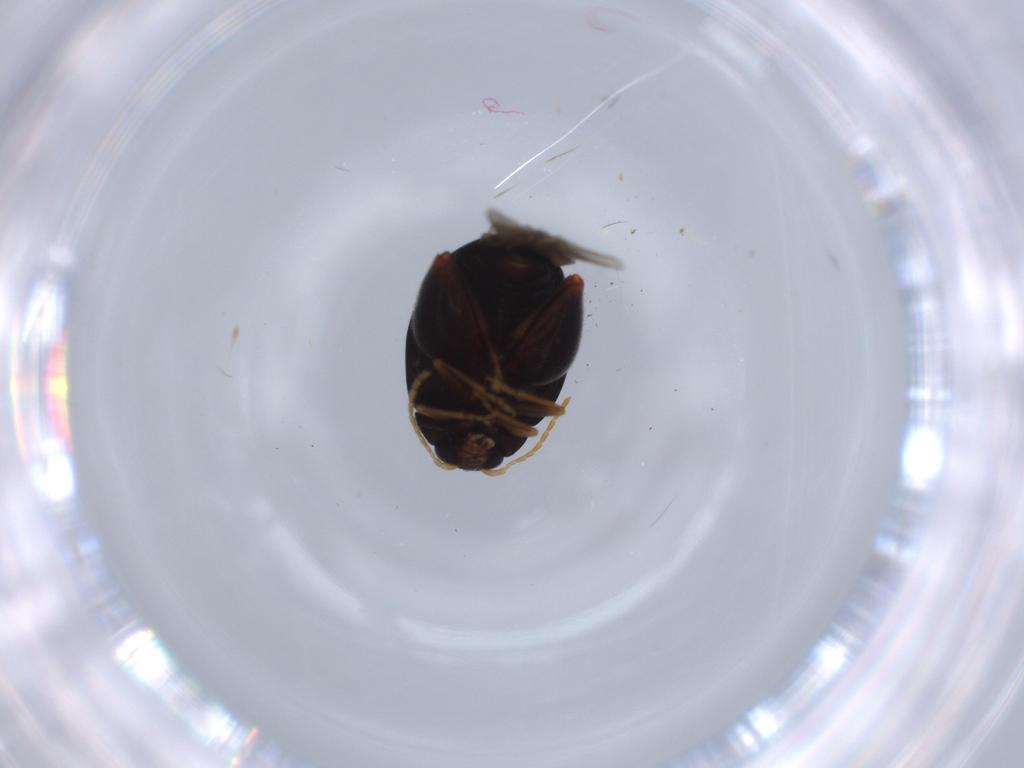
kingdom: Animalia
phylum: Arthropoda
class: Insecta
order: Coleoptera
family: Chrysomelidae
